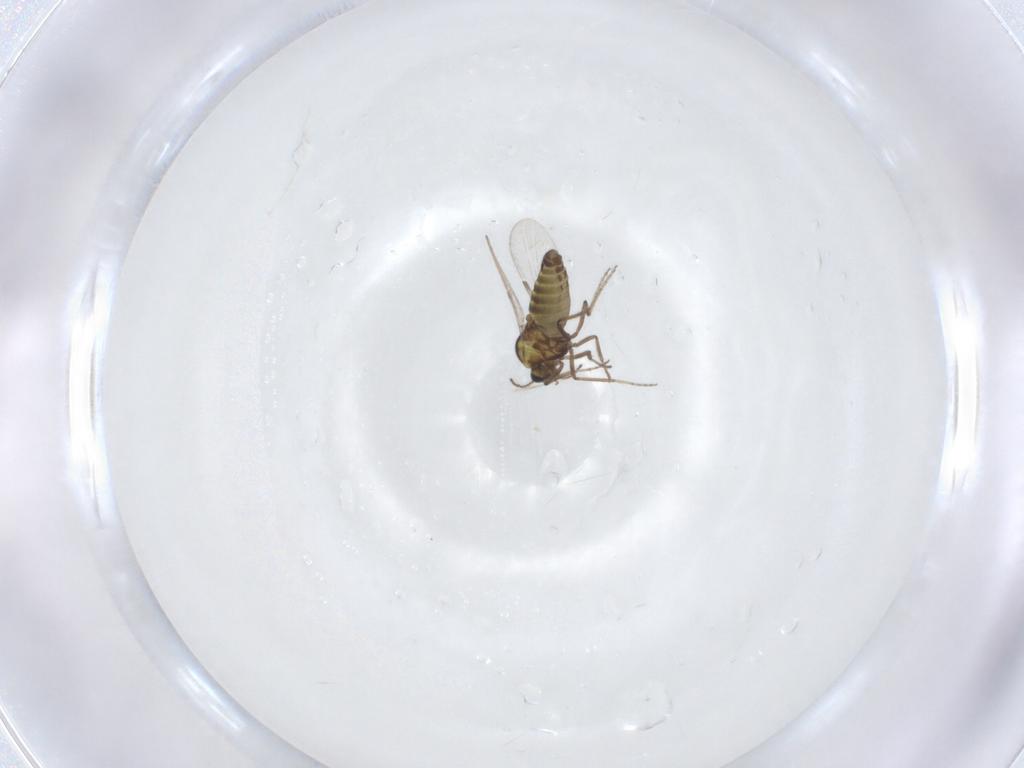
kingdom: Animalia
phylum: Arthropoda
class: Insecta
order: Diptera
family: Ceratopogonidae
